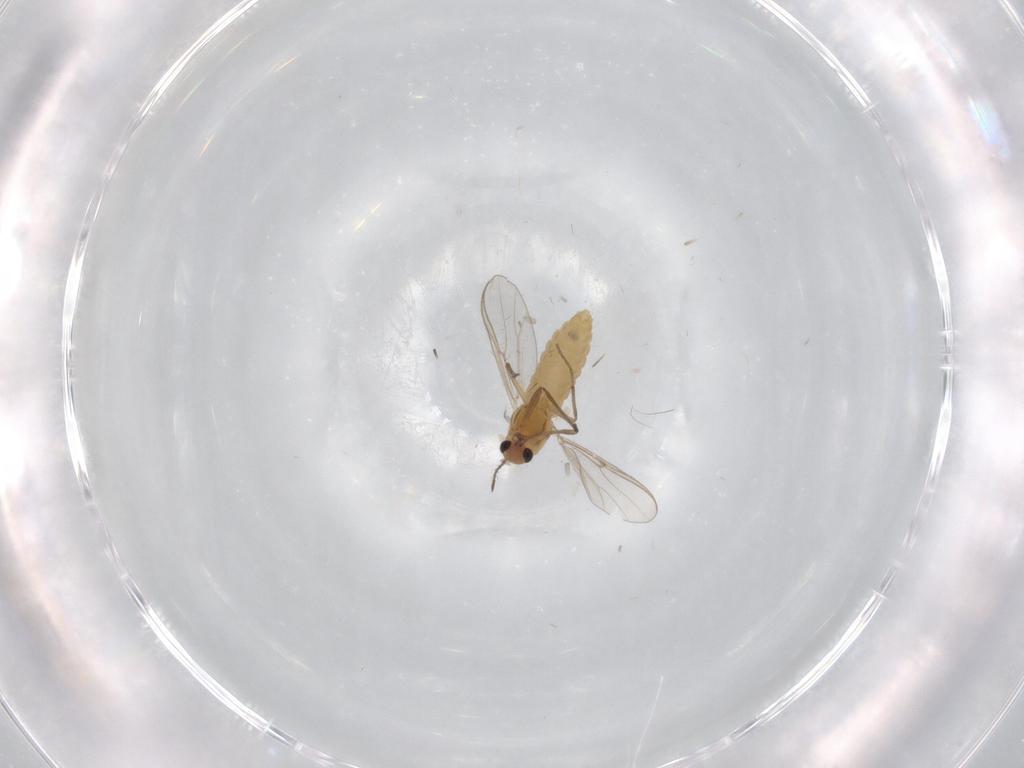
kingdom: Animalia
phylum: Arthropoda
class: Insecta
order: Diptera
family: Chironomidae
